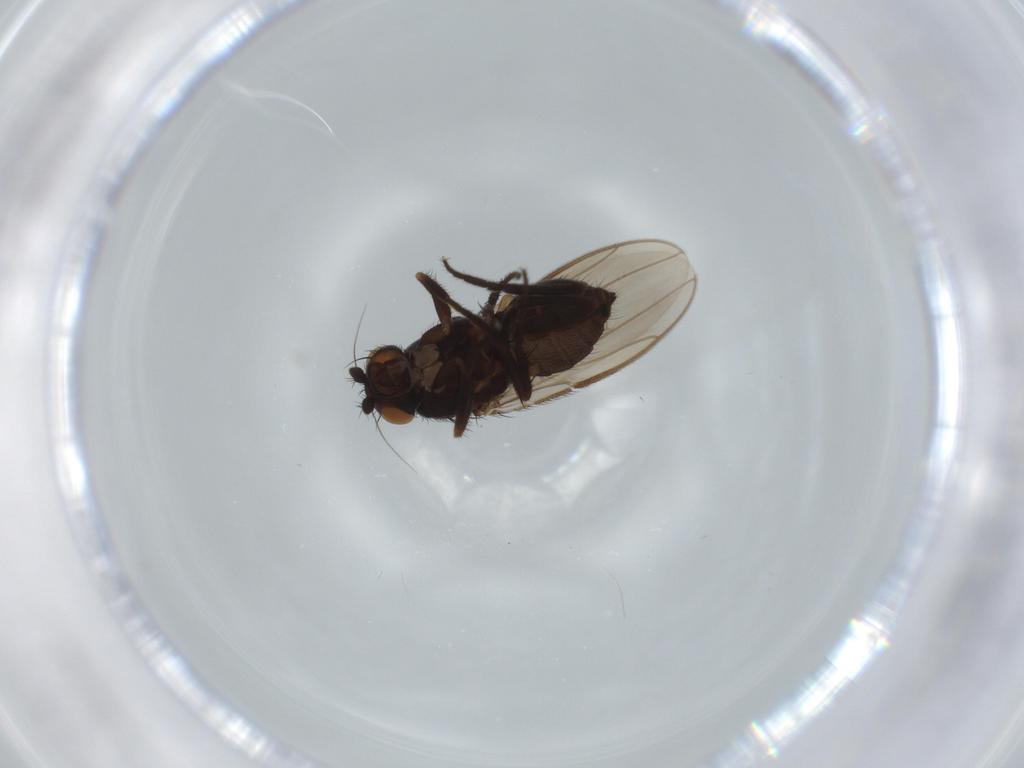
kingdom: Animalia
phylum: Arthropoda
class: Insecta
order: Diptera
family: Sphaeroceridae
